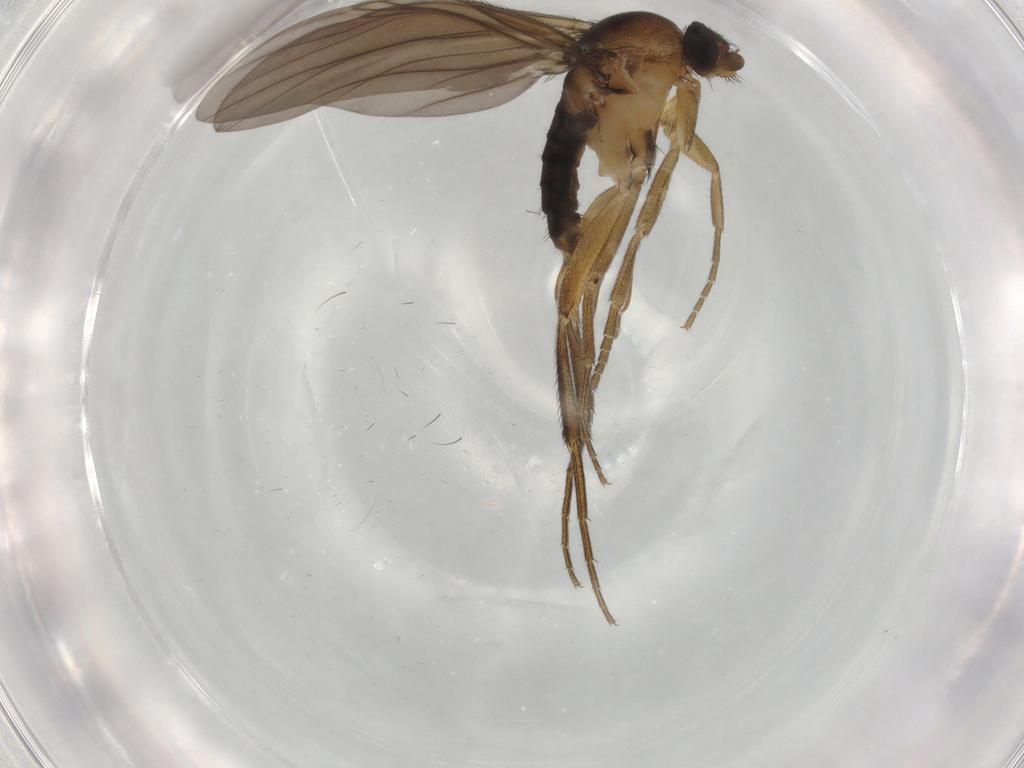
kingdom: Animalia
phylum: Arthropoda
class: Insecta
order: Diptera
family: Phoridae
